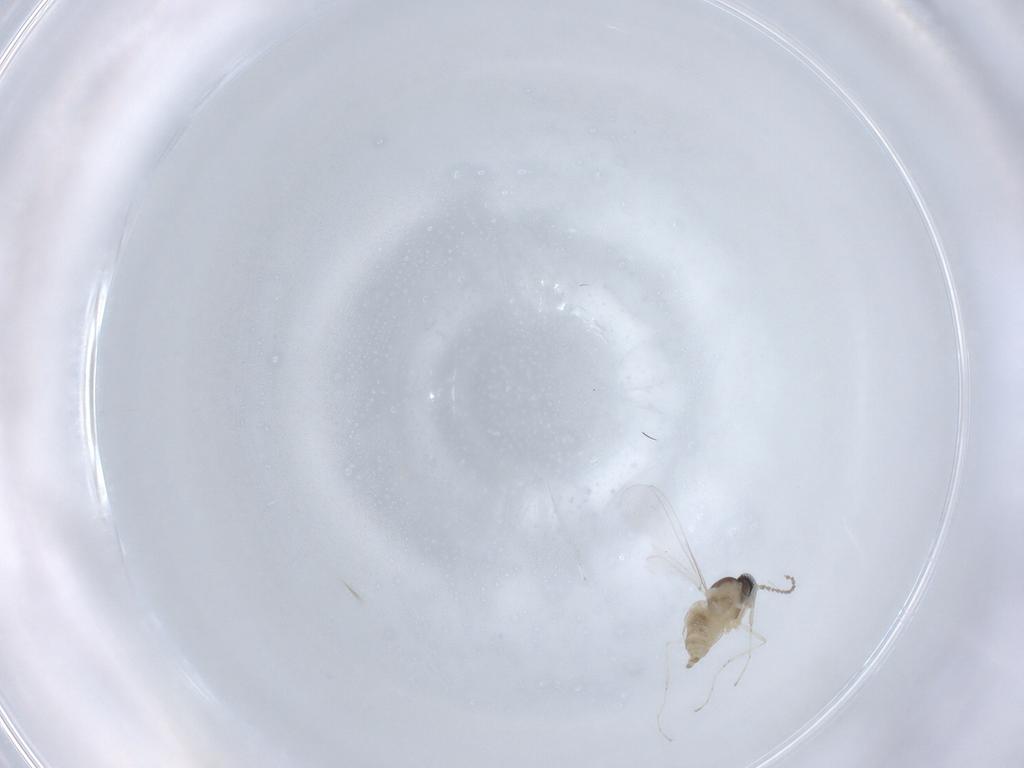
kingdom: Animalia
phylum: Arthropoda
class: Insecta
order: Diptera
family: Cecidomyiidae
